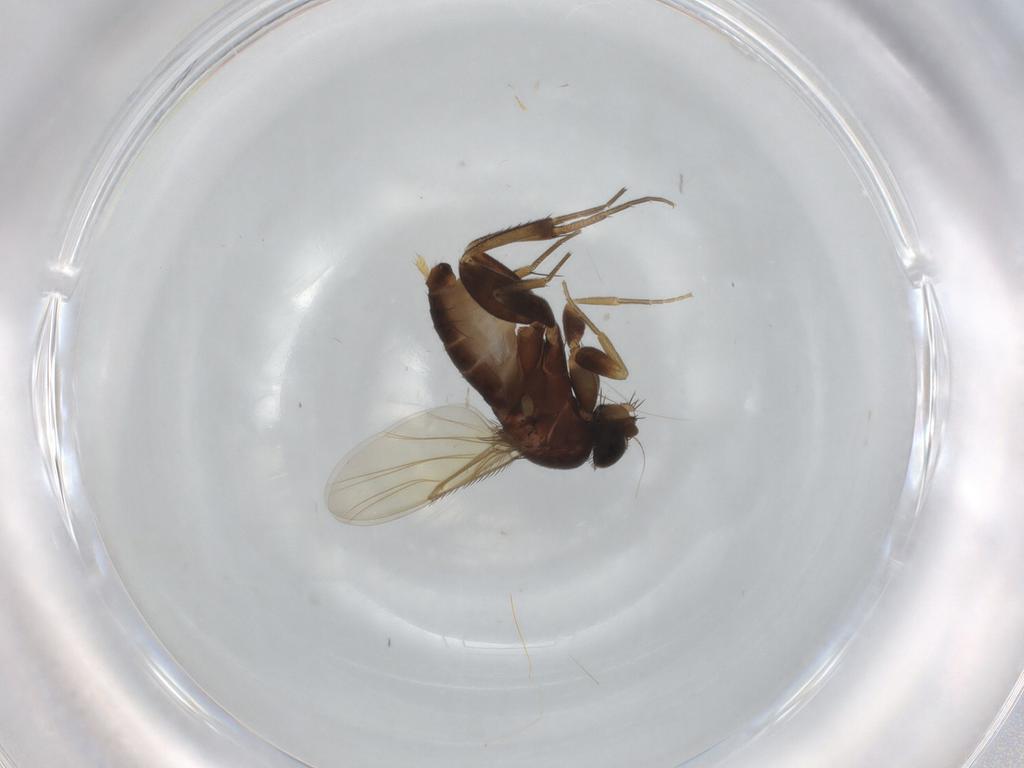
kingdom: Animalia
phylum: Arthropoda
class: Insecta
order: Diptera
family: Phoridae
